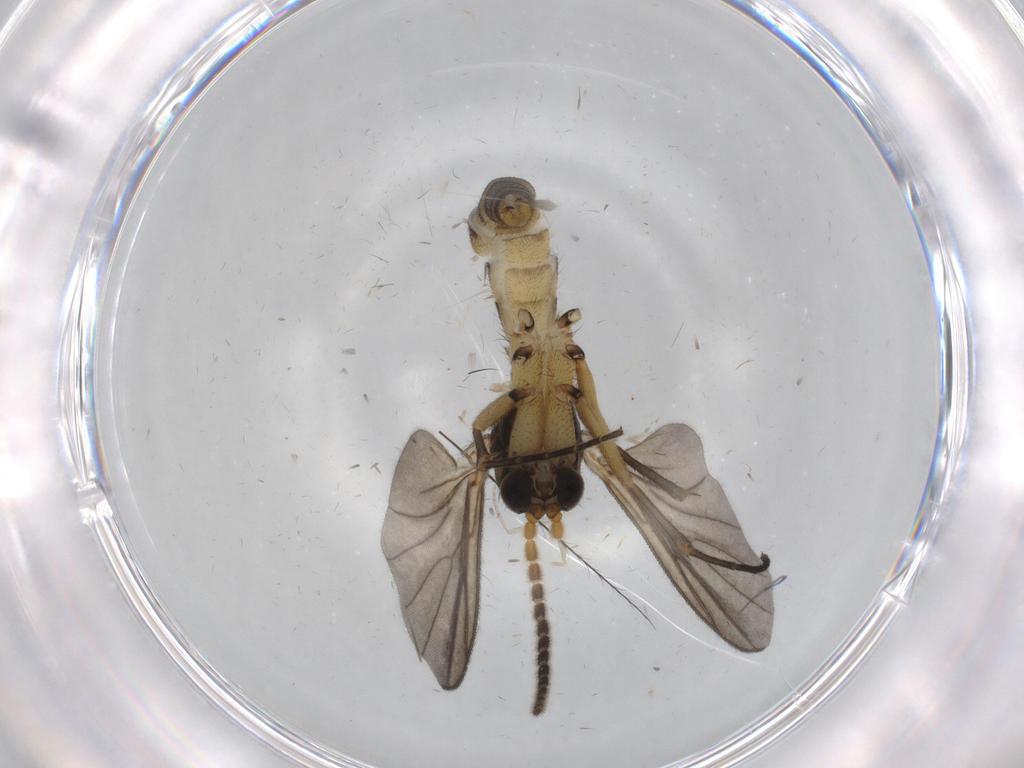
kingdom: Animalia
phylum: Arthropoda
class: Insecta
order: Diptera
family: Mycetophilidae
